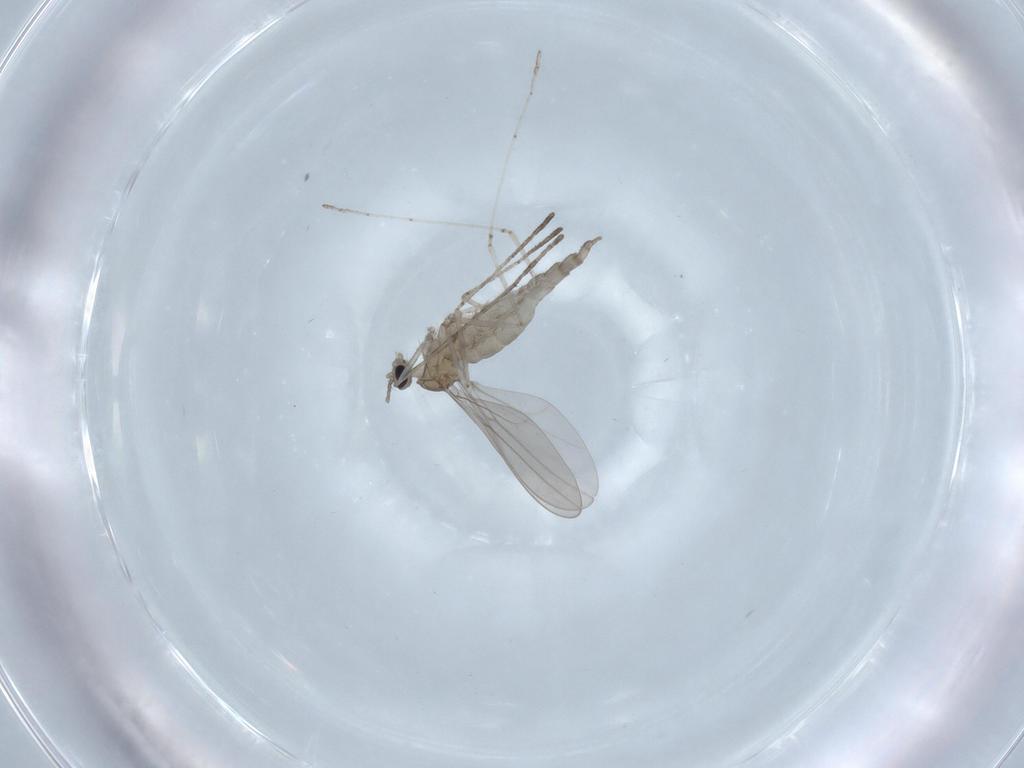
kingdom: Animalia
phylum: Arthropoda
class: Insecta
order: Diptera
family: Cecidomyiidae
